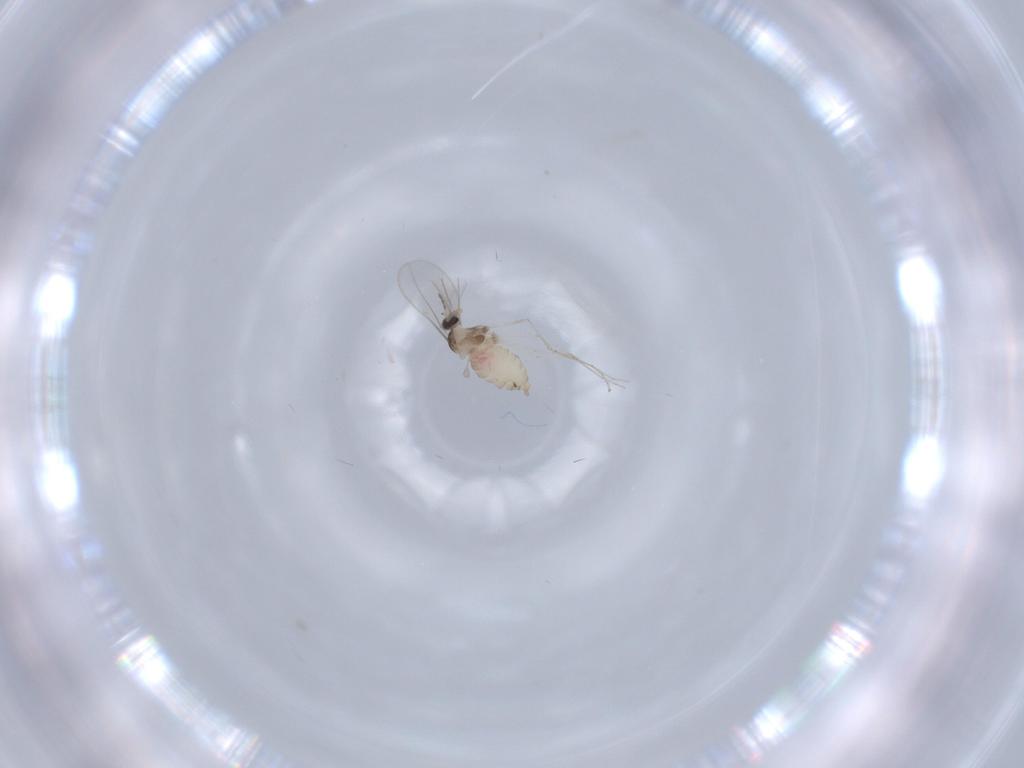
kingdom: Animalia
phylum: Arthropoda
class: Insecta
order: Diptera
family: Cecidomyiidae
